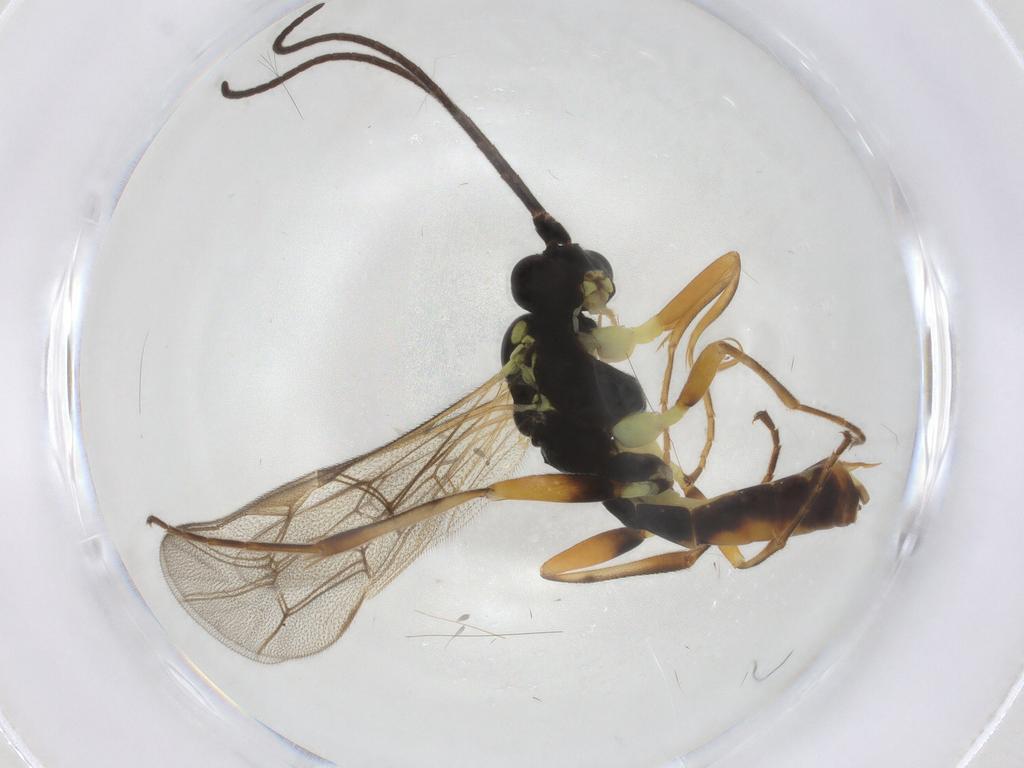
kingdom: Animalia
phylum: Arthropoda
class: Insecta
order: Hymenoptera
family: Ichneumonidae
